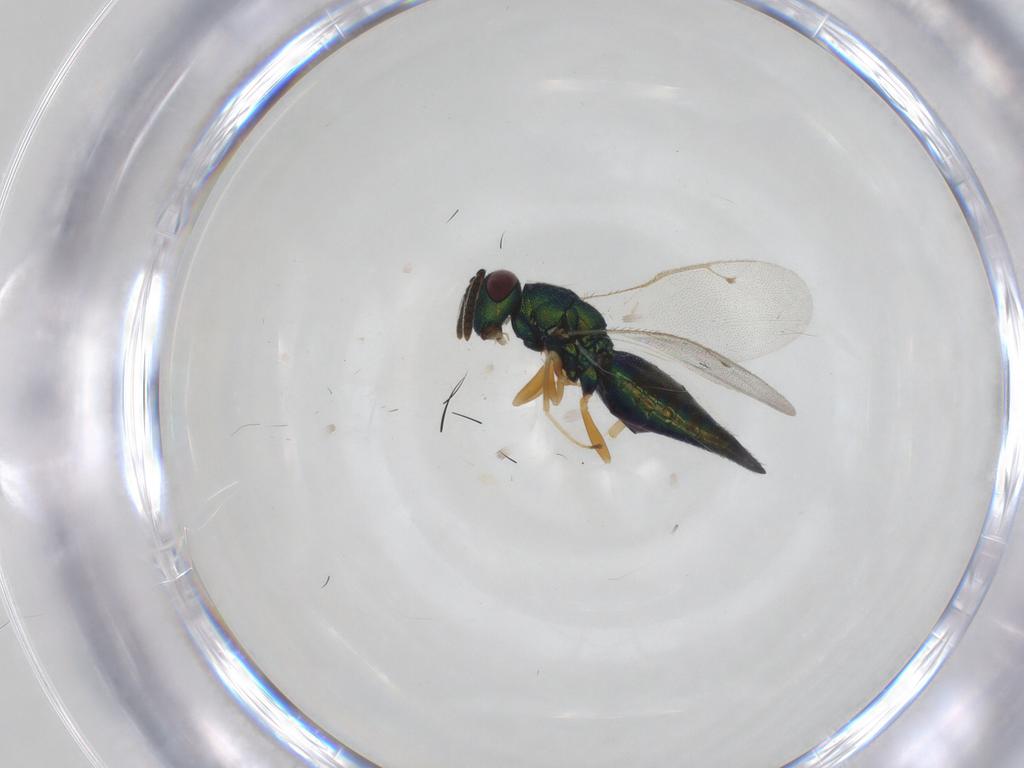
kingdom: Animalia
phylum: Arthropoda
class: Insecta
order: Hymenoptera
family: Pteromalidae
